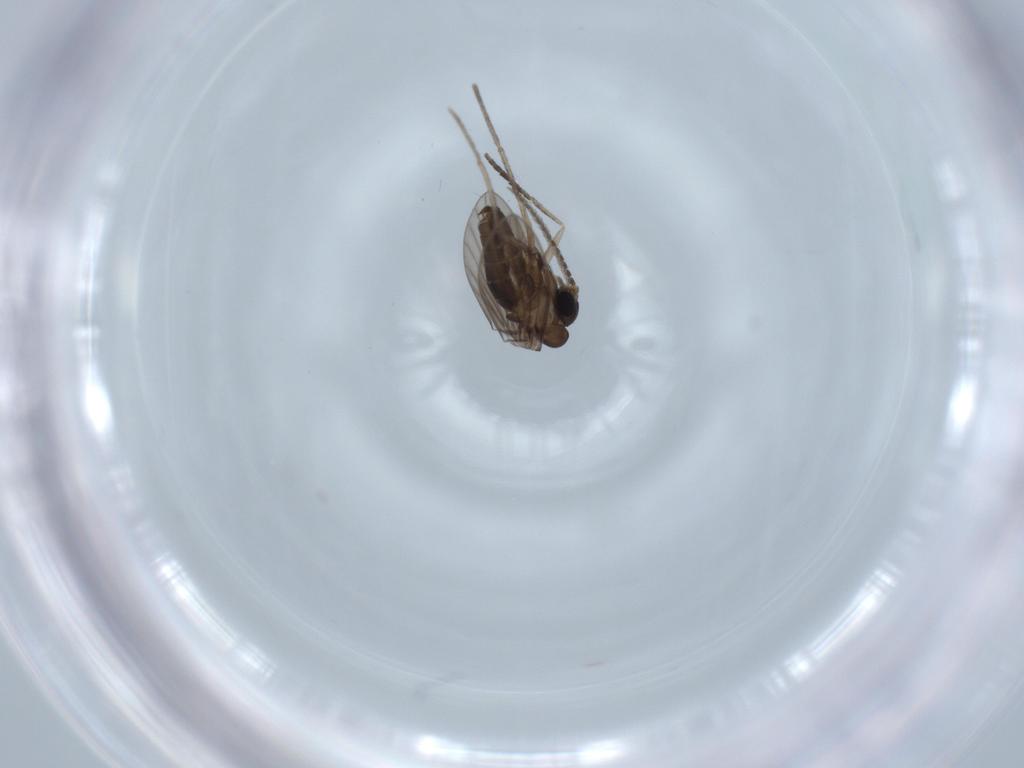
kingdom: Animalia
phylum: Arthropoda
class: Insecta
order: Diptera
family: Psychodidae
